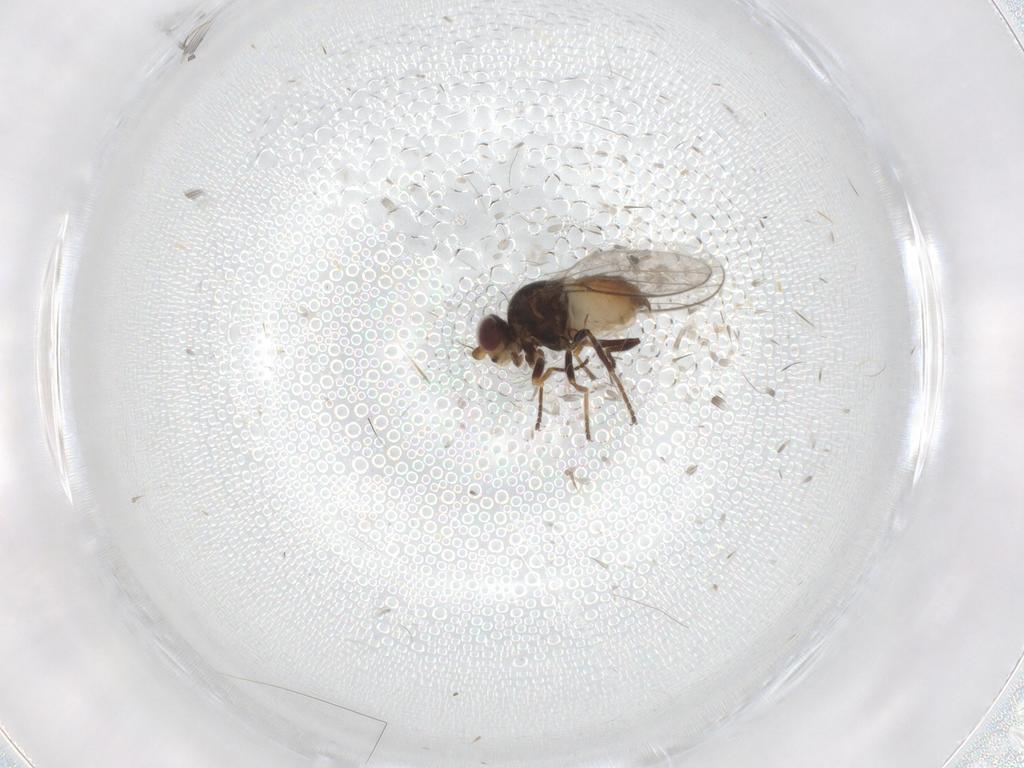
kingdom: Animalia
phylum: Arthropoda
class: Insecta
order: Diptera
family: Chloropidae
